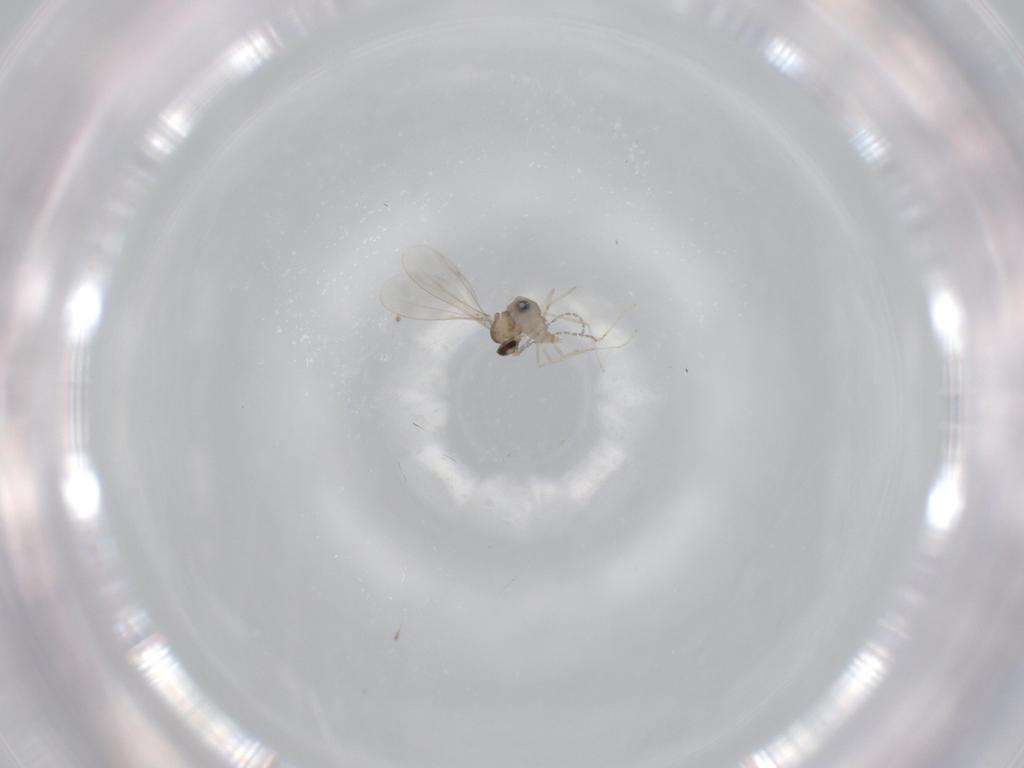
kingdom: Animalia
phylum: Arthropoda
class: Insecta
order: Diptera
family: Cecidomyiidae
